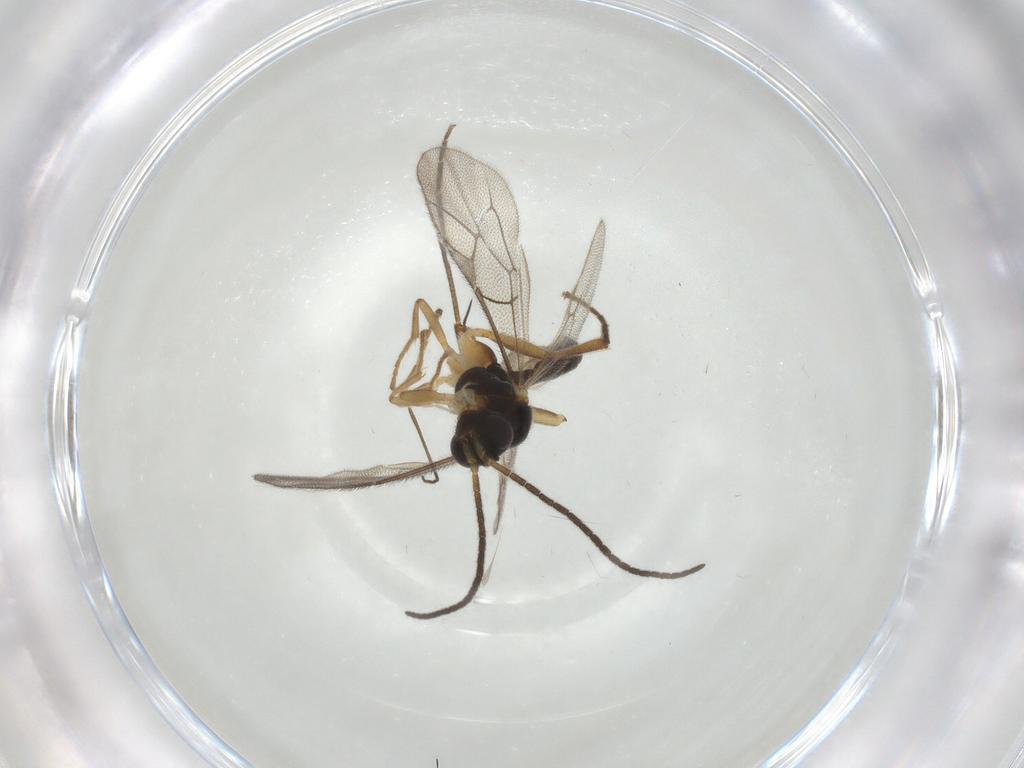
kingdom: Animalia
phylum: Arthropoda
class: Insecta
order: Hymenoptera
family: Ichneumonidae
